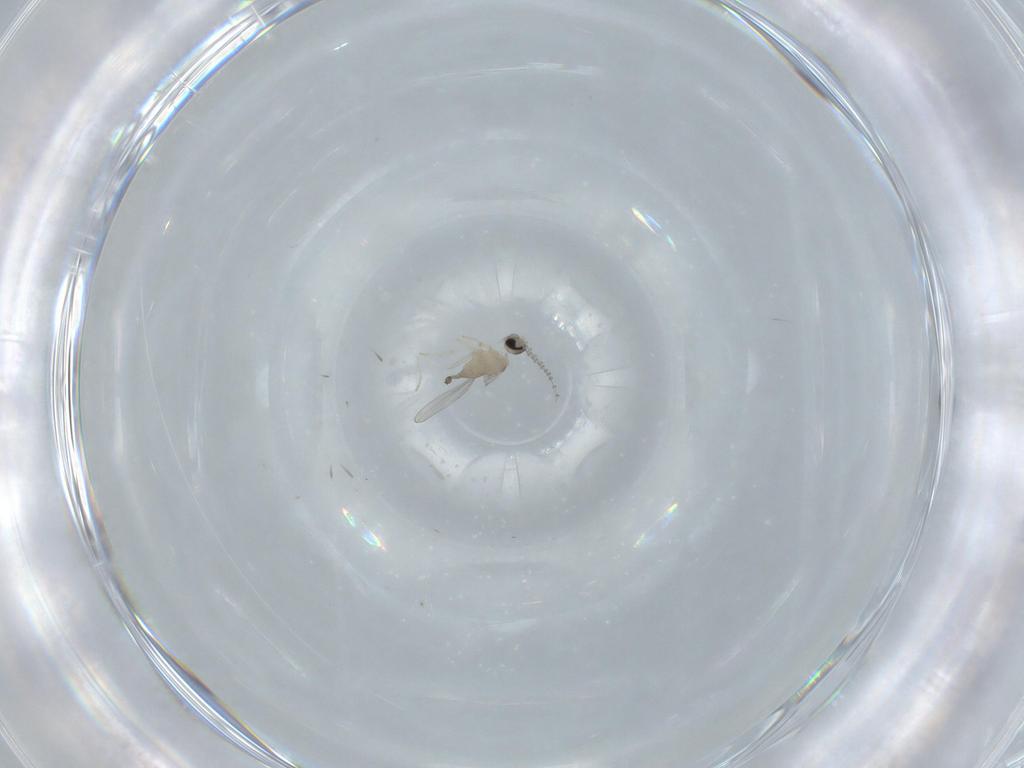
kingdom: Animalia
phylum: Arthropoda
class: Insecta
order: Diptera
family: Cecidomyiidae
